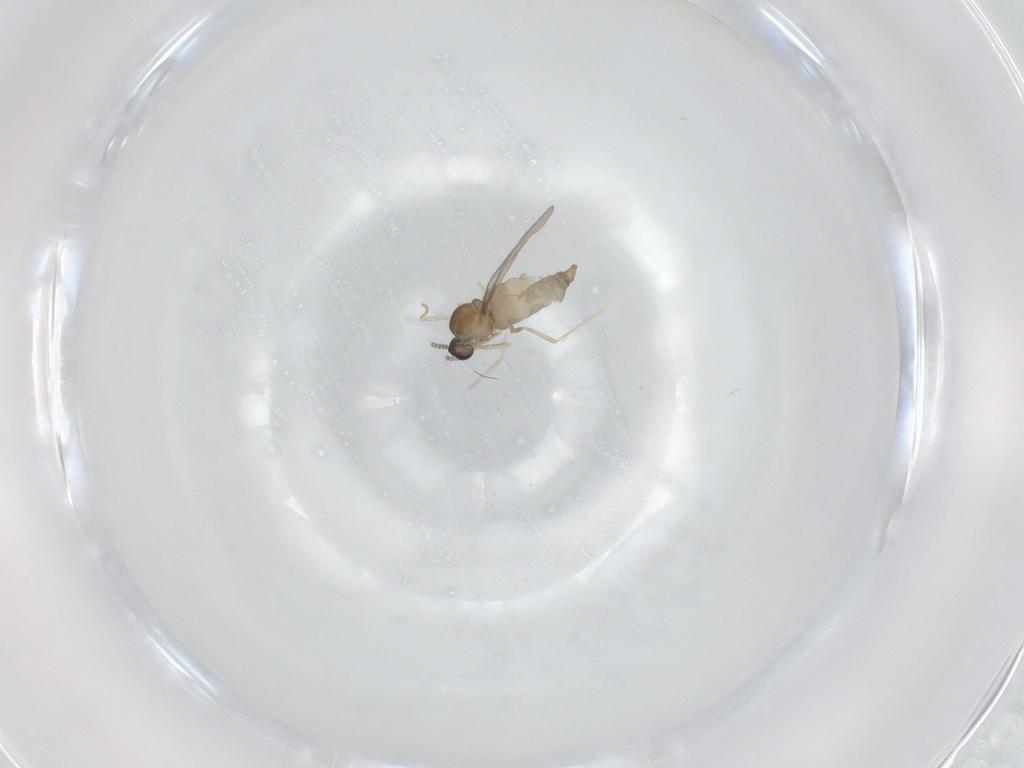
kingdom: Animalia
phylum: Arthropoda
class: Insecta
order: Diptera
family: Cecidomyiidae
